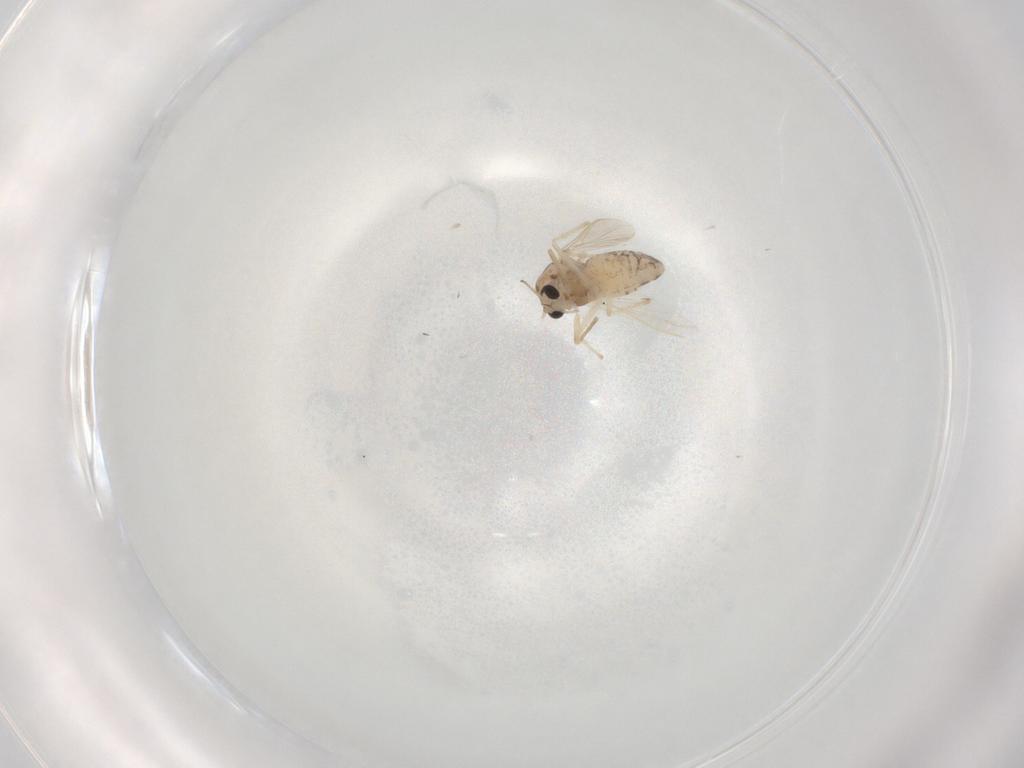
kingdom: Animalia
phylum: Arthropoda
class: Insecta
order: Diptera
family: Chironomidae
